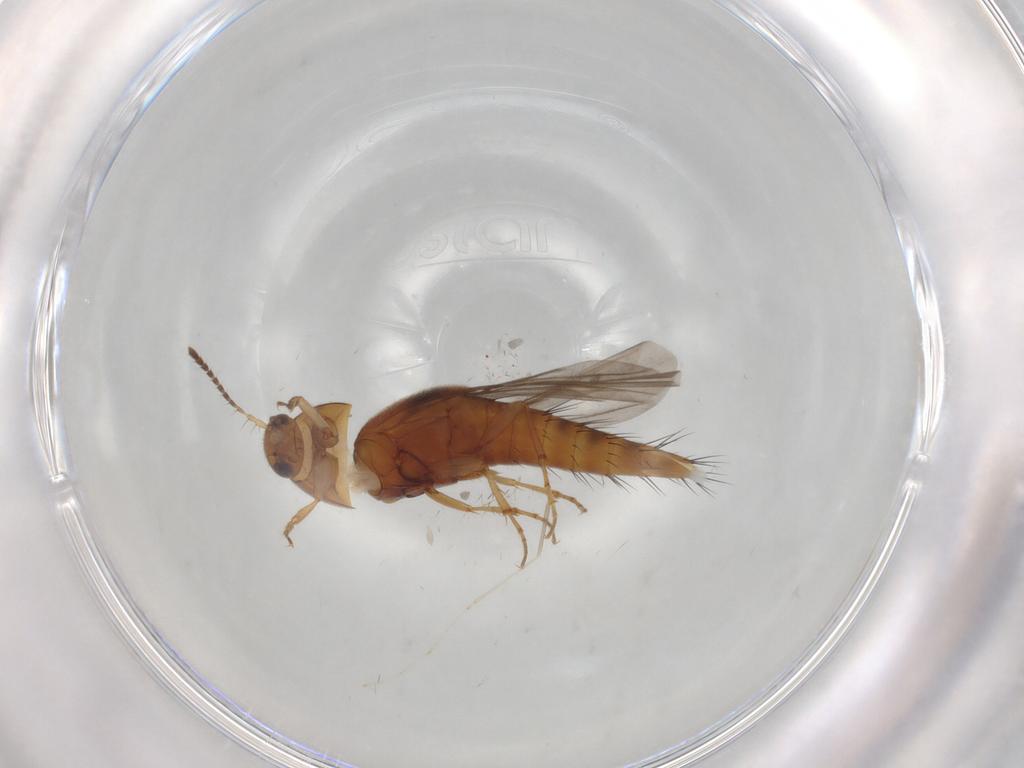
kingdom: Animalia
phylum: Arthropoda
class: Insecta
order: Coleoptera
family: Staphylinidae
